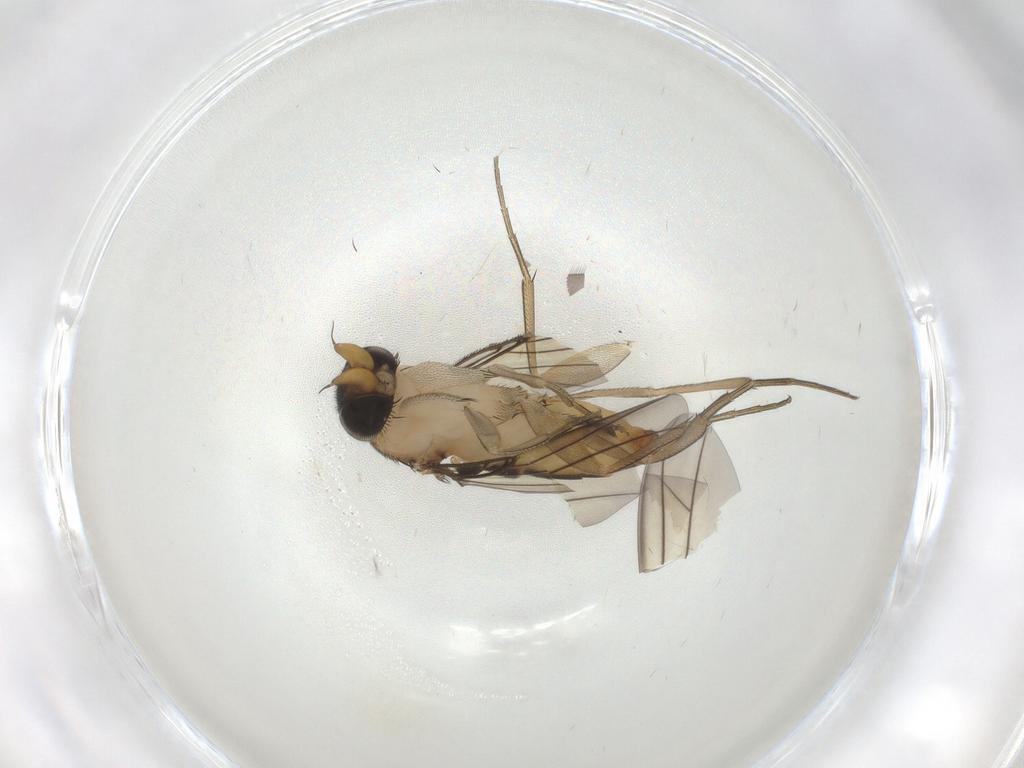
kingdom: Animalia
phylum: Arthropoda
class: Insecta
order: Diptera
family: Phoridae
